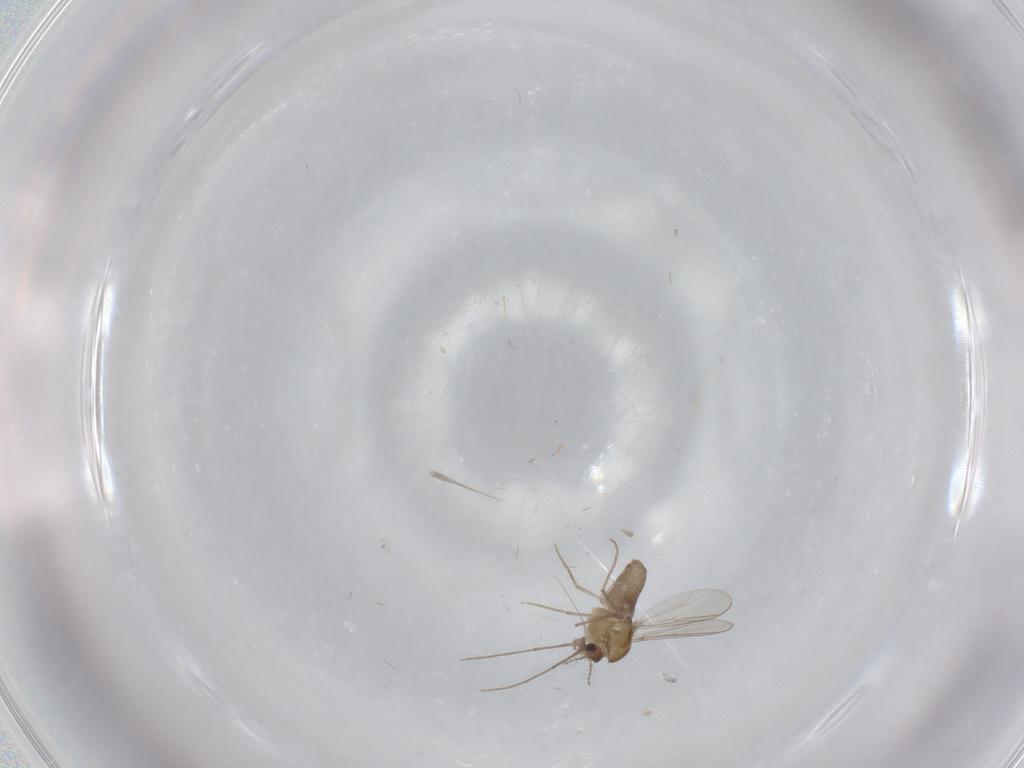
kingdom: Animalia
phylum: Arthropoda
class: Insecta
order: Diptera
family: Chironomidae
